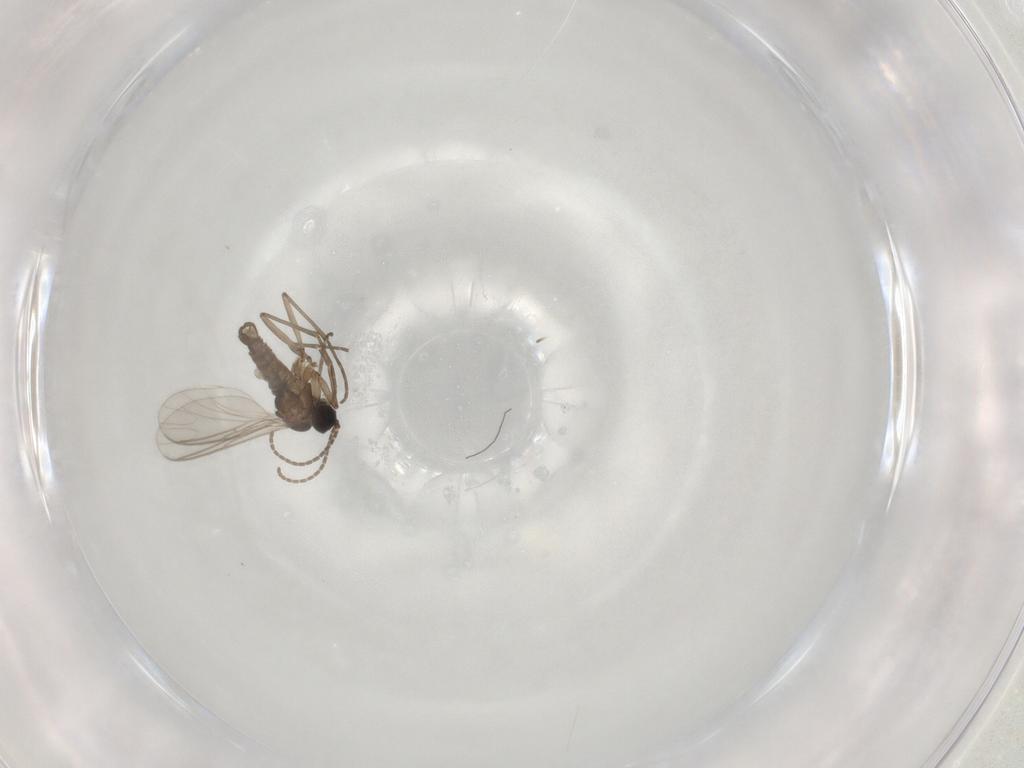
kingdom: Animalia
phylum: Arthropoda
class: Insecta
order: Diptera
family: Sciaridae
